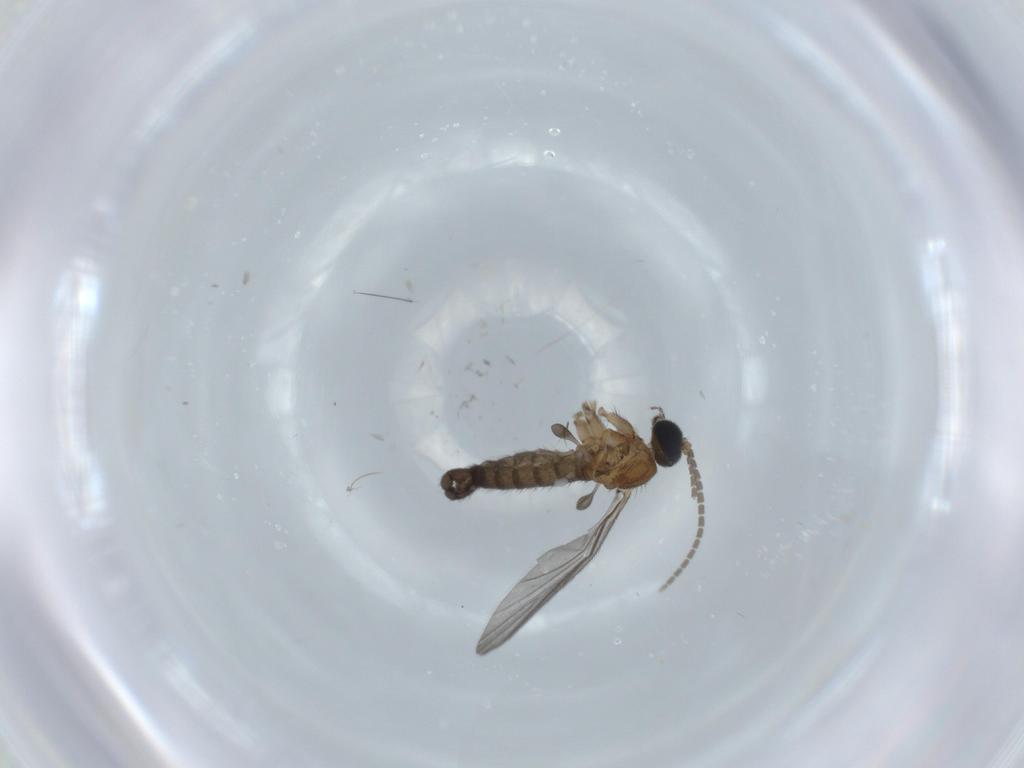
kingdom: Animalia
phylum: Arthropoda
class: Insecta
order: Diptera
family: Sciaridae
